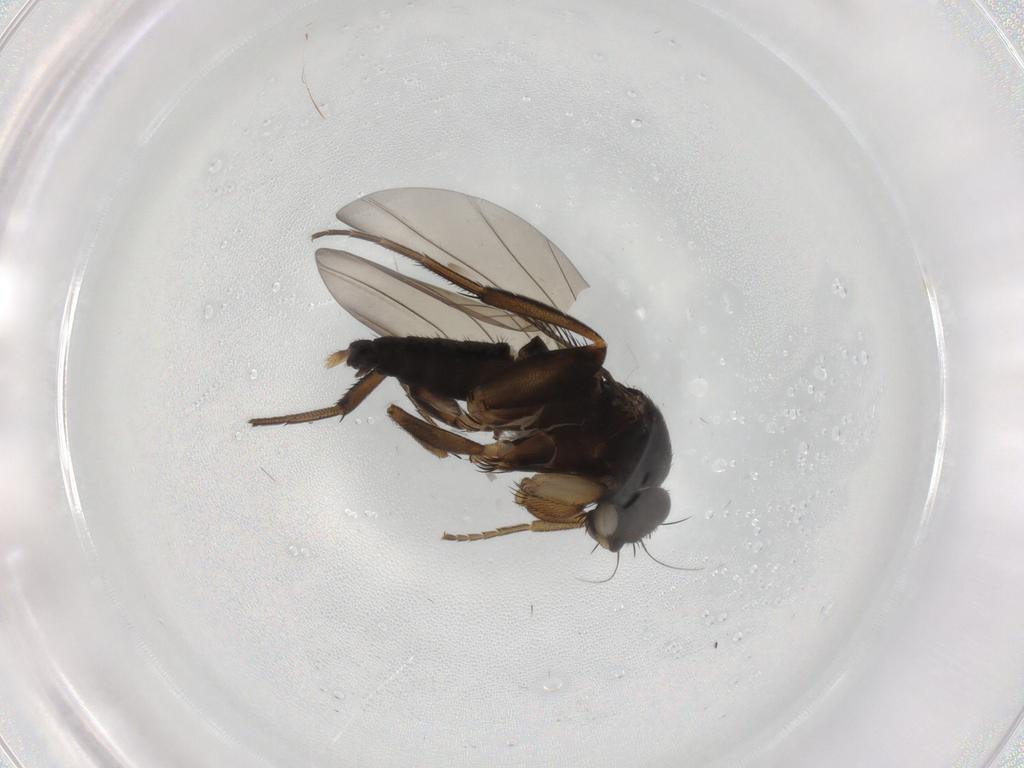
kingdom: Animalia
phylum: Arthropoda
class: Insecta
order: Diptera
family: Phoridae
